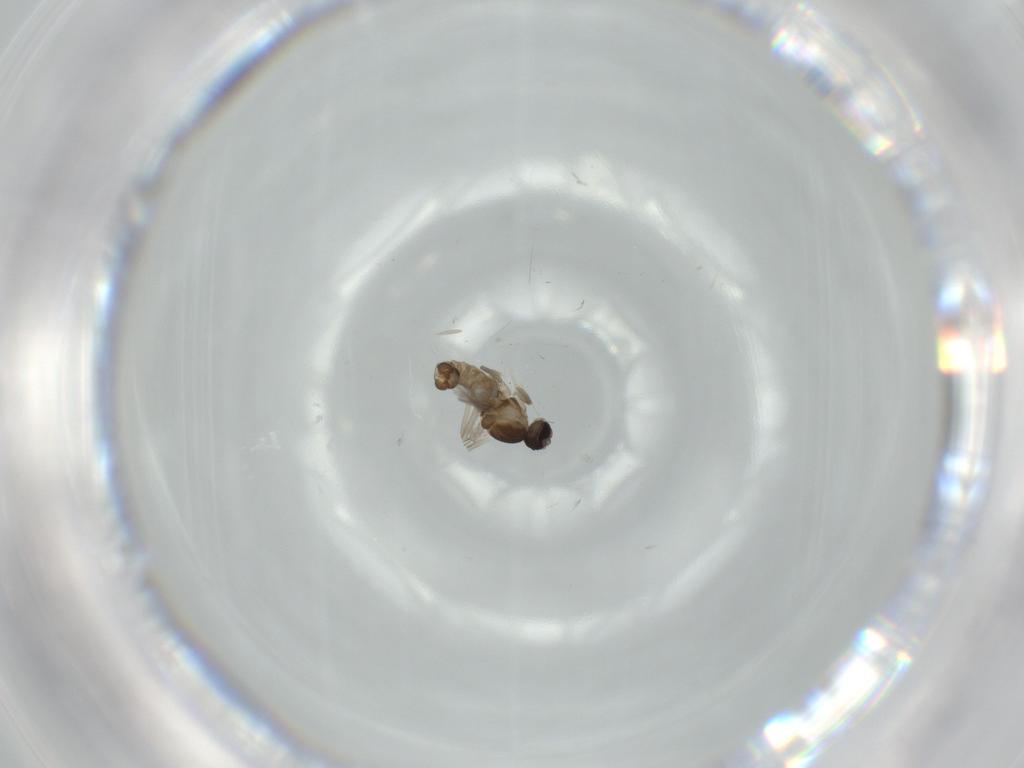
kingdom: Animalia
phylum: Arthropoda
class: Insecta
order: Diptera
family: Cecidomyiidae
